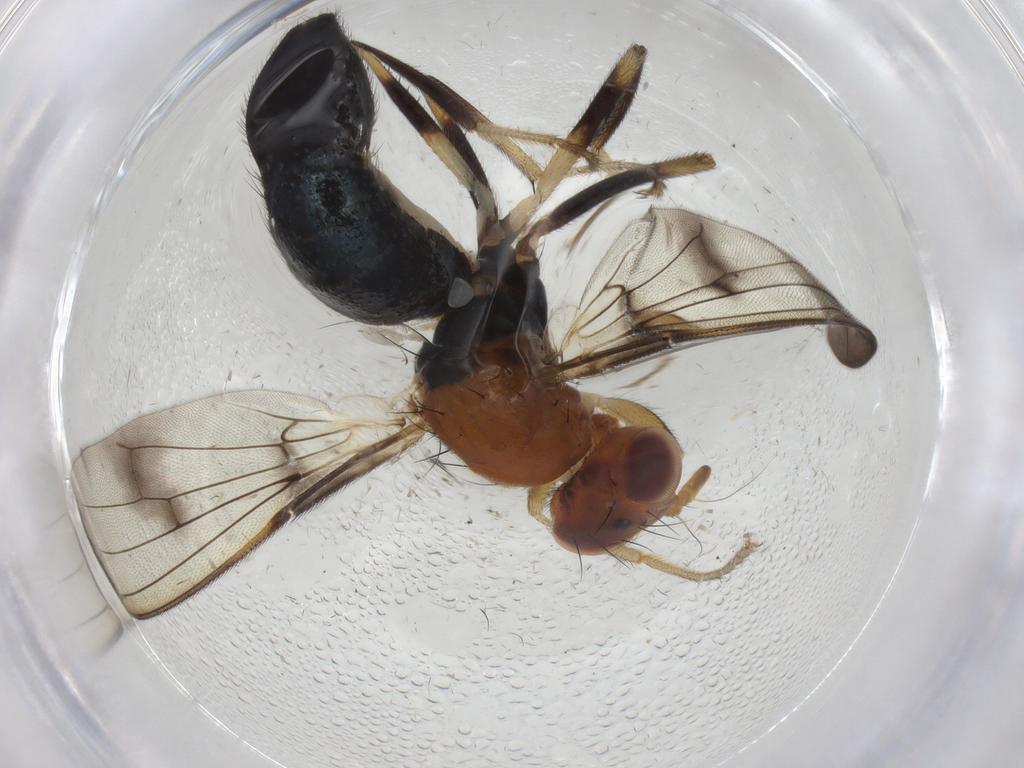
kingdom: Animalia
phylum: Arthropoda
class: Insecta
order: Diptera
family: Richardiidae
